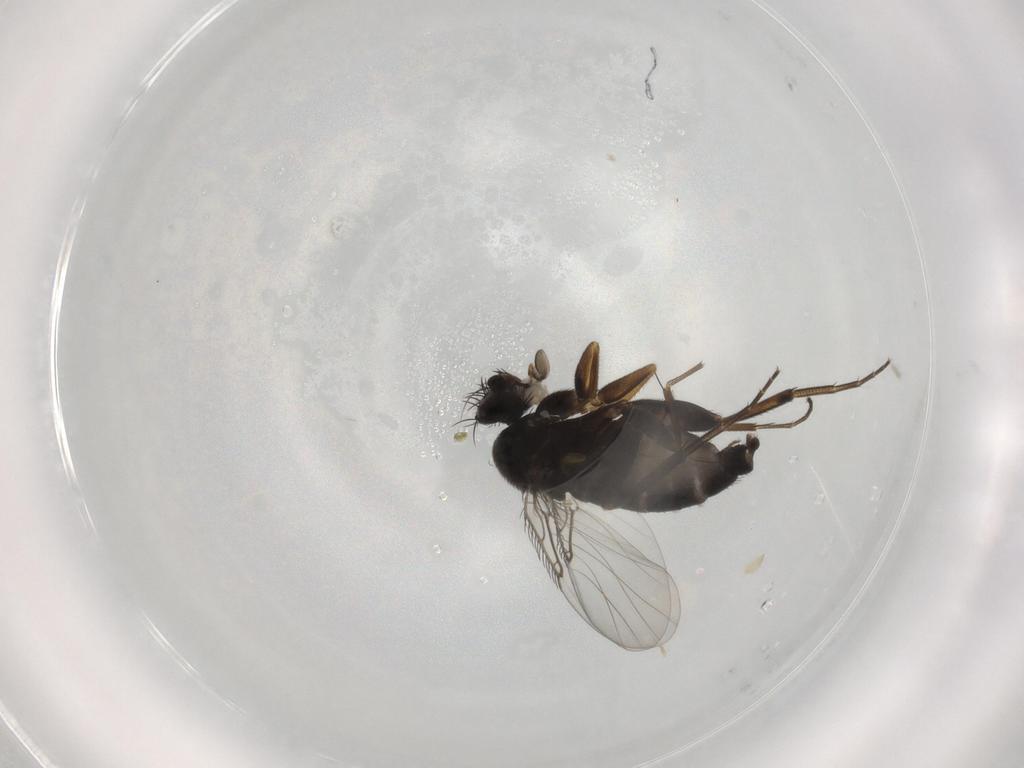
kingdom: Animalia
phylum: Arthropoda
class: Insecta
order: Diptera
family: Phoridae
